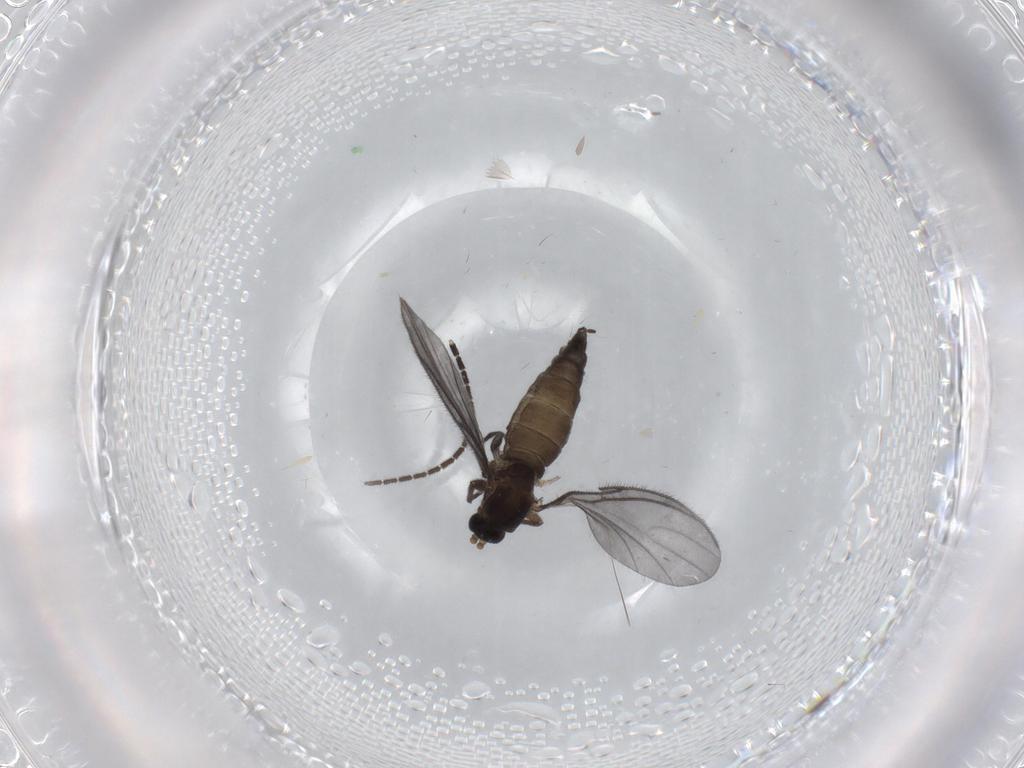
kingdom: Animalia
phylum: Arthropoda
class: Insecta
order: Diptera
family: Sciaridae
